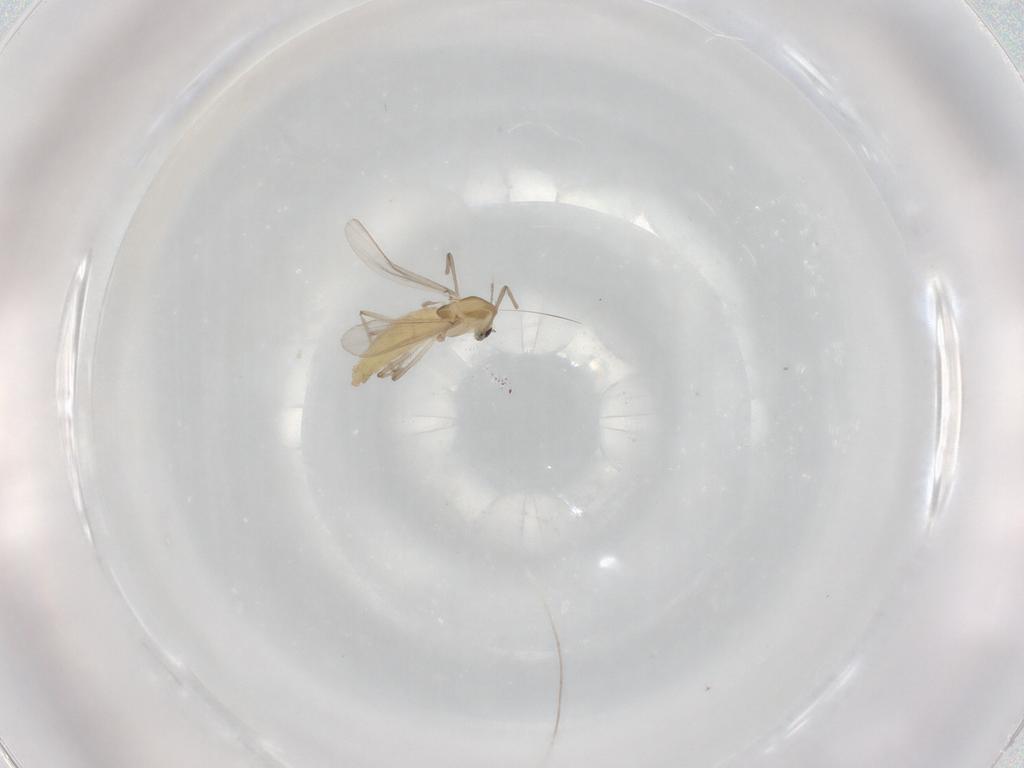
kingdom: Animalia
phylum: Arthropoda
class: Insecta
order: Diptera
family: Chironomidae
